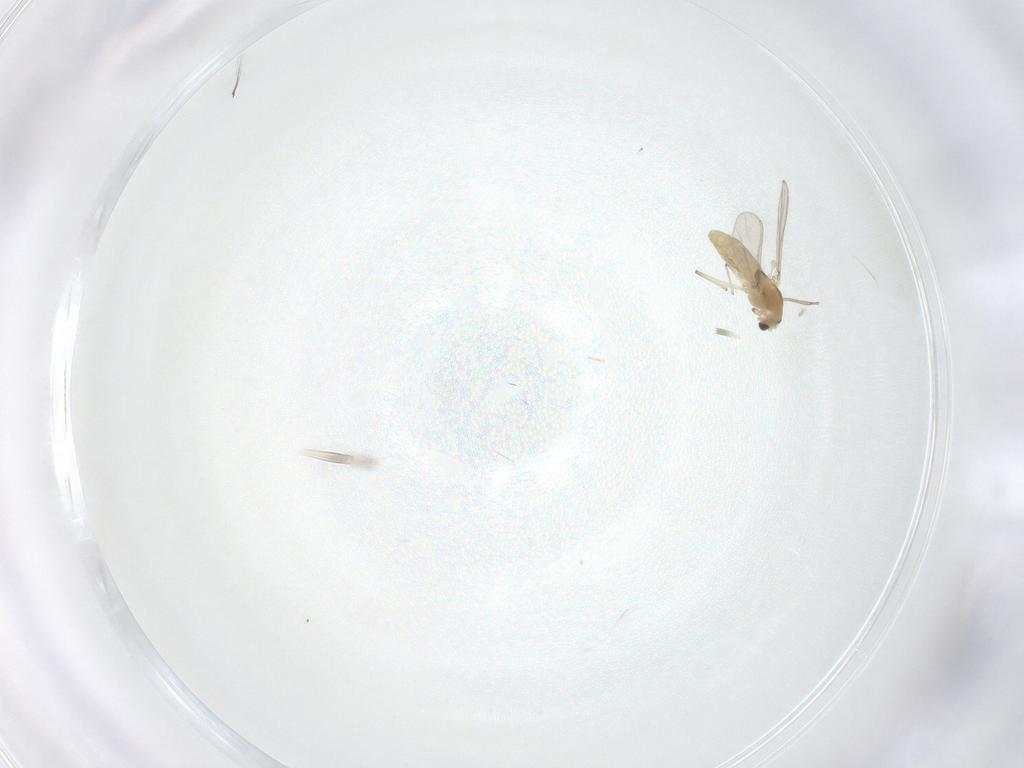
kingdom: Animalia
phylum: Arthropoda
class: Insecta
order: Diptera
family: Chironomidae
